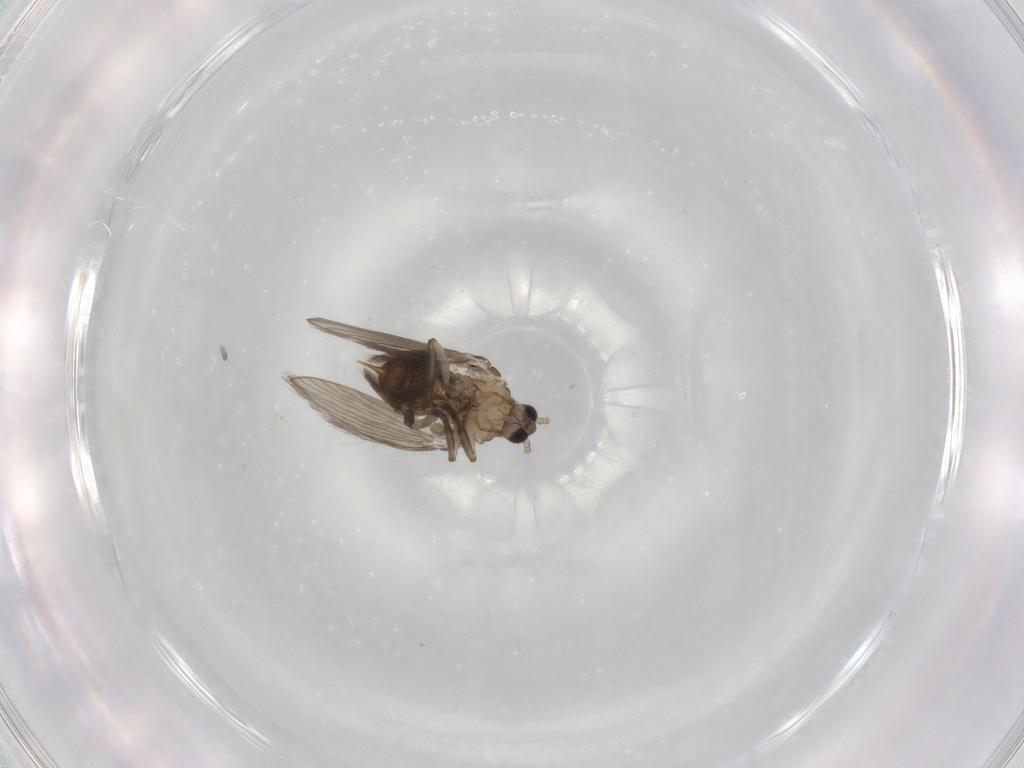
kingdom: Animalia
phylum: Arthropoda
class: Insecta
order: Diptera
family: Psychodidae
